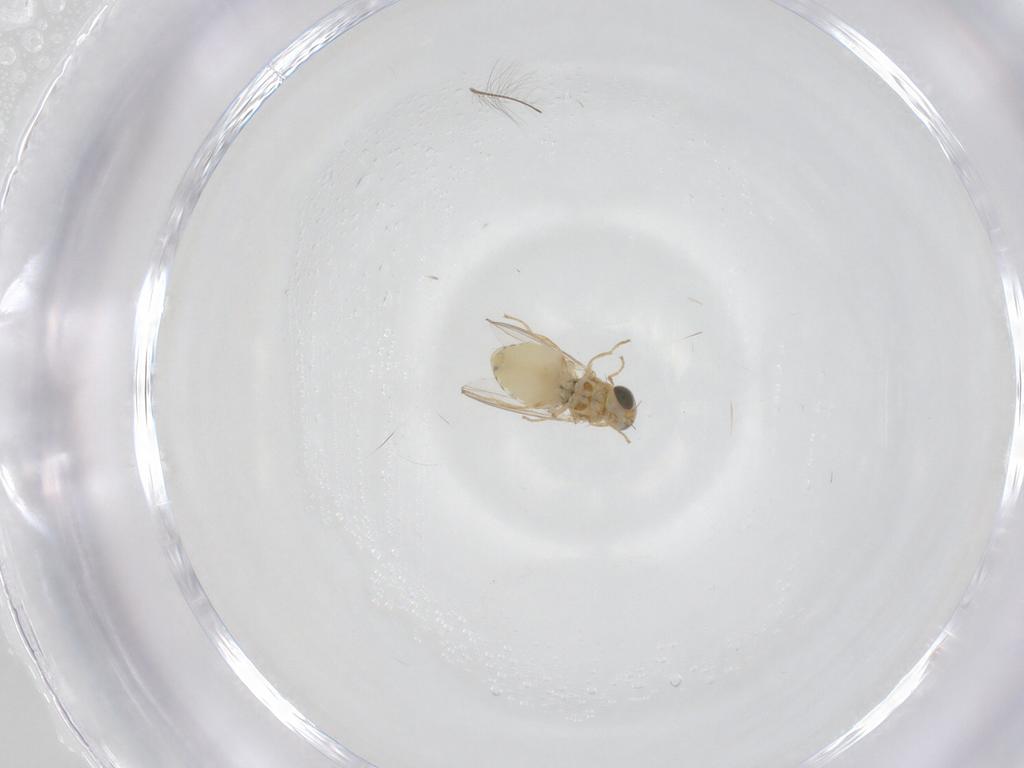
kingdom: Animalia
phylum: Arthropoda
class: Insecta
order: Diptera
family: Chyromyidae
